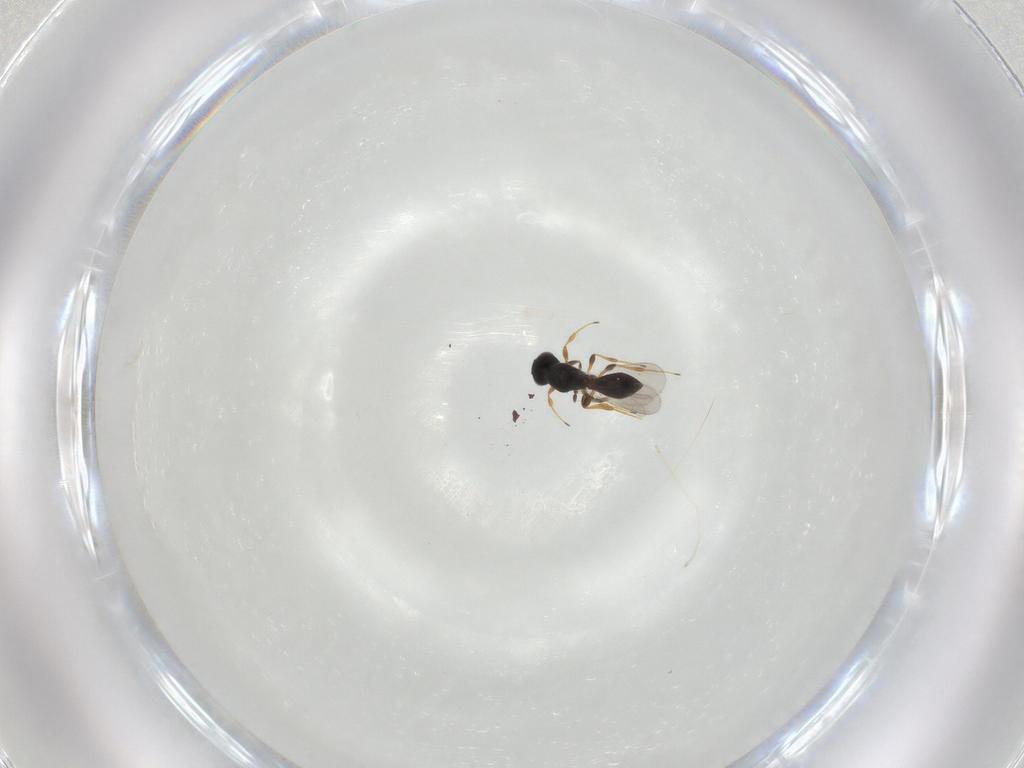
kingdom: Animalia
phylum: Arthropoda
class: Insecta
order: Hymenoptera
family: Platygastridae
